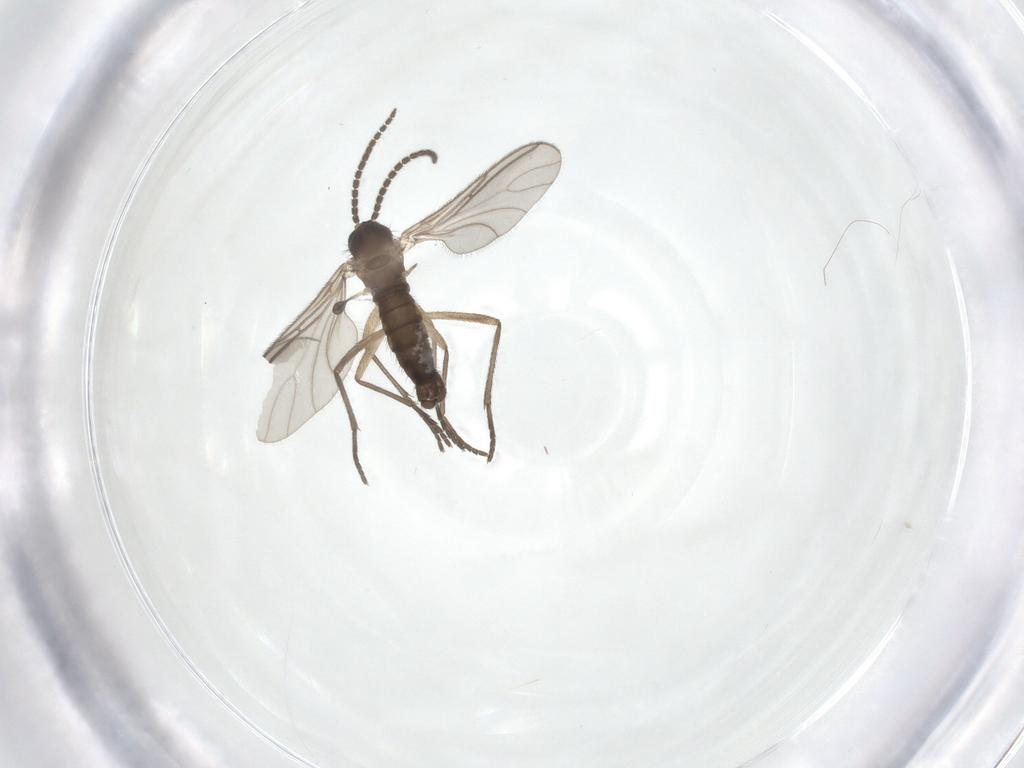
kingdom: Animalia
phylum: Arthropoda
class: Insecta
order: Diptera
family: Sciaridae
